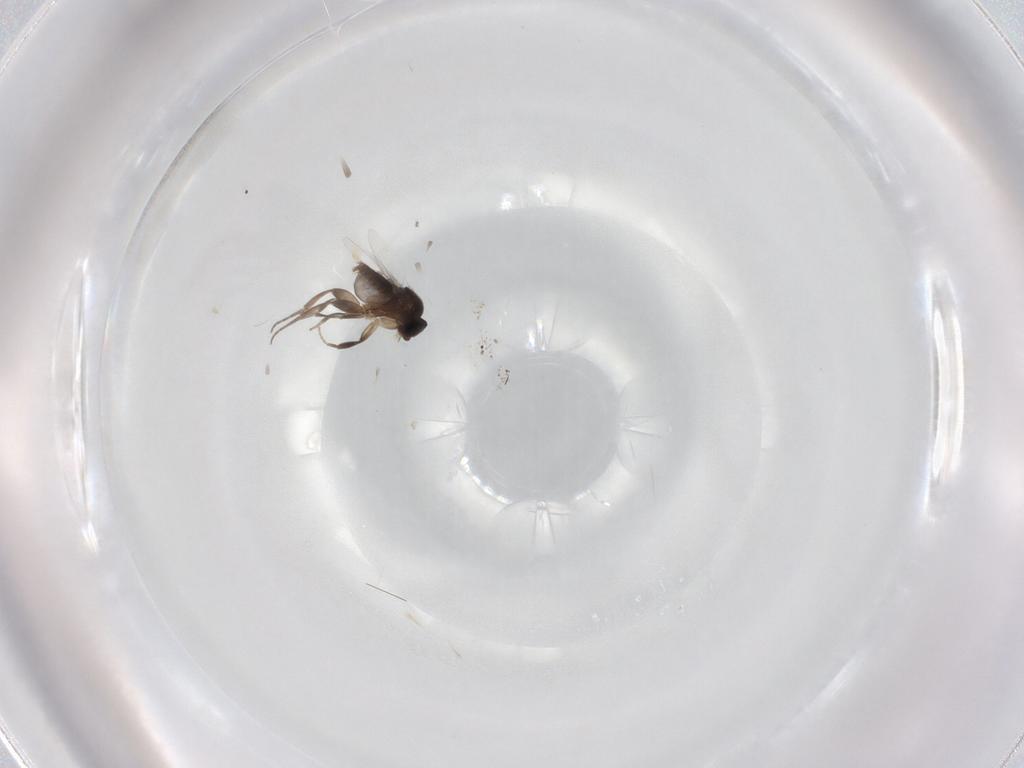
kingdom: Animalia
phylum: Arthropoda
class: Insecta
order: Diptera
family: Phoridae
